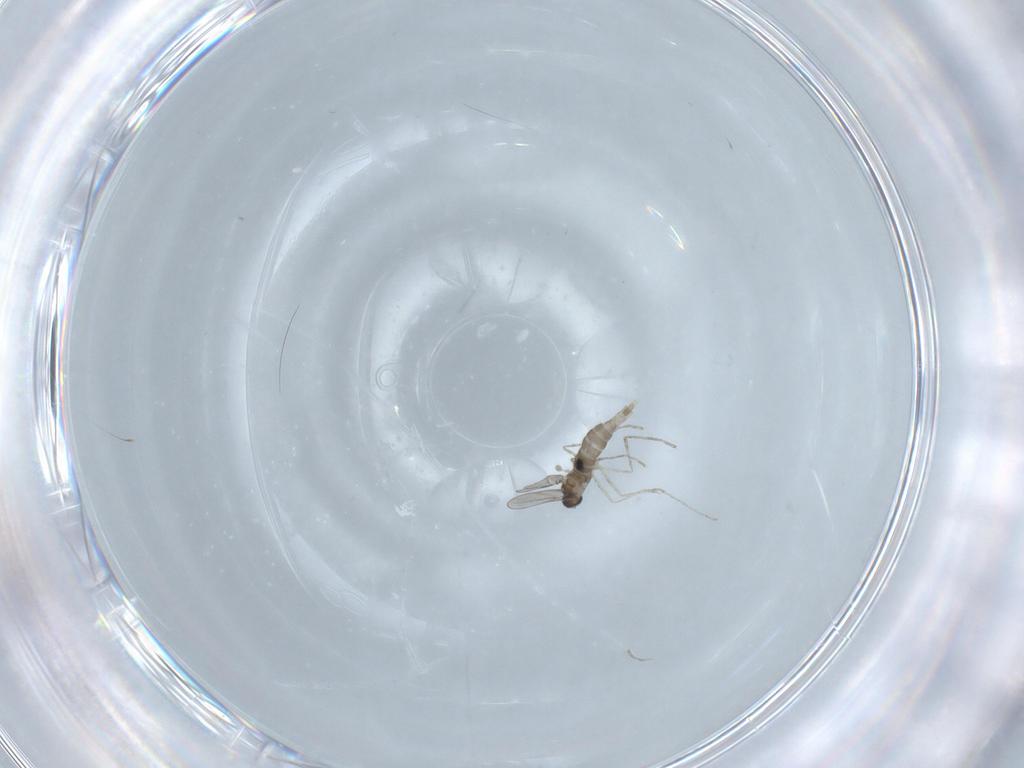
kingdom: Animalia
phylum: Arthropoda
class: Insecta
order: Diptera
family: Cecidomyiidae
